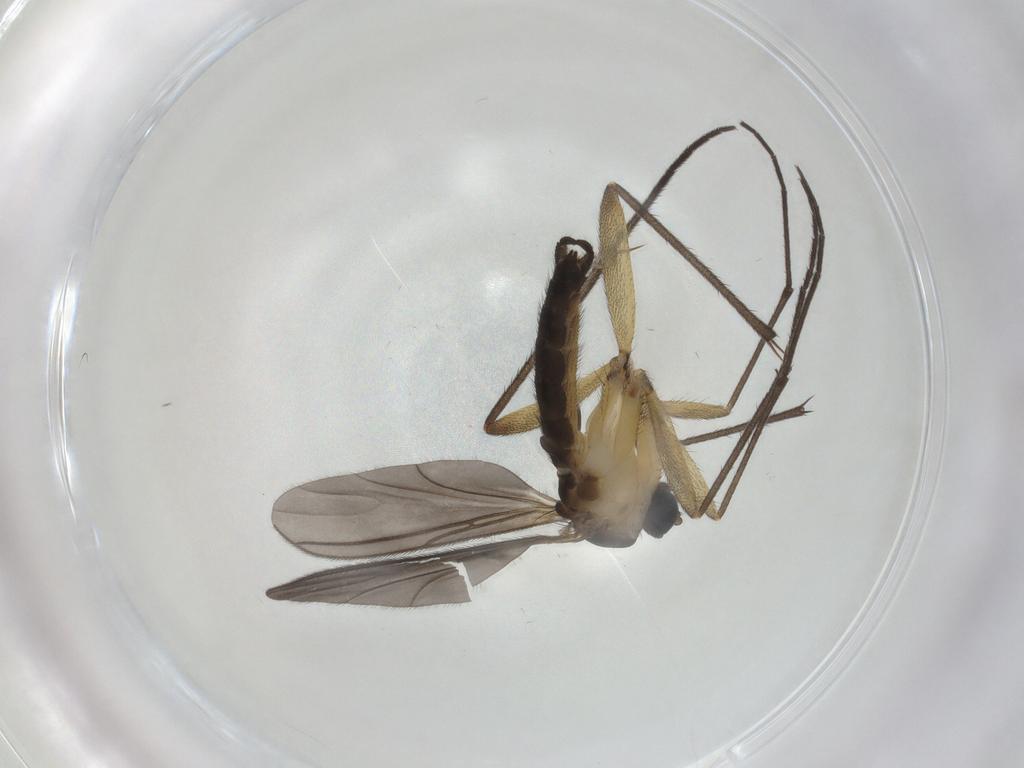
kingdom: Animalia
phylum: Arthropoda
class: Insecta
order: Diptera
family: Sciaridae
